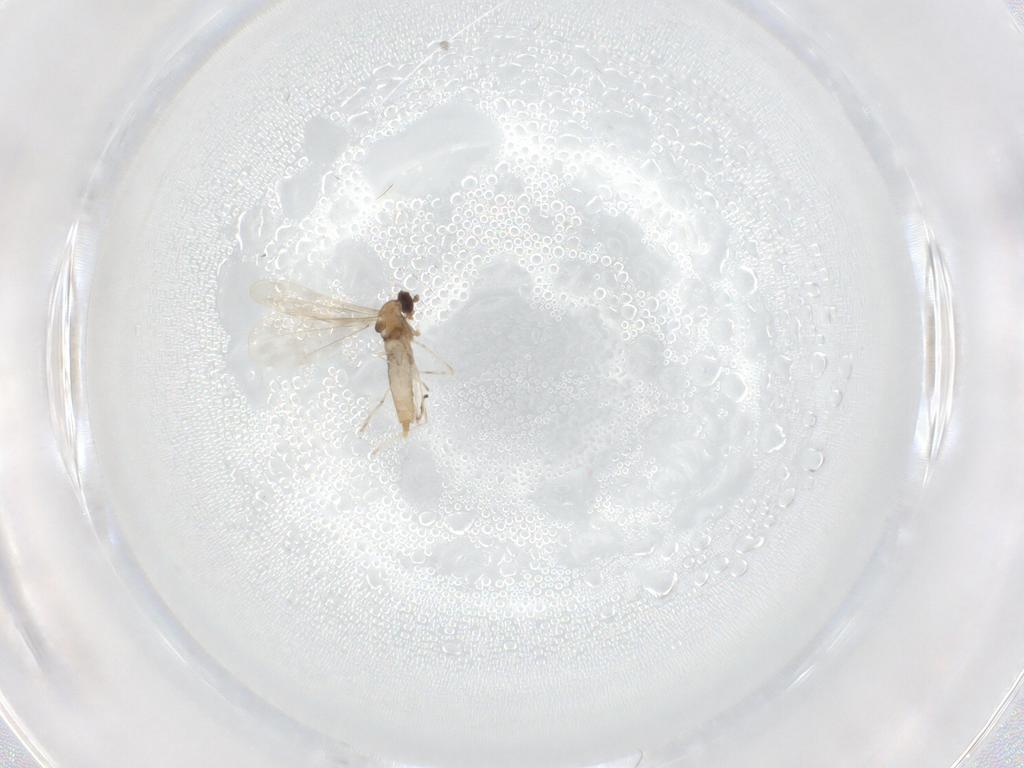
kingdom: Animalia
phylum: Arthropoda
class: Insecta
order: Diptera
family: Cecidomyiidae
